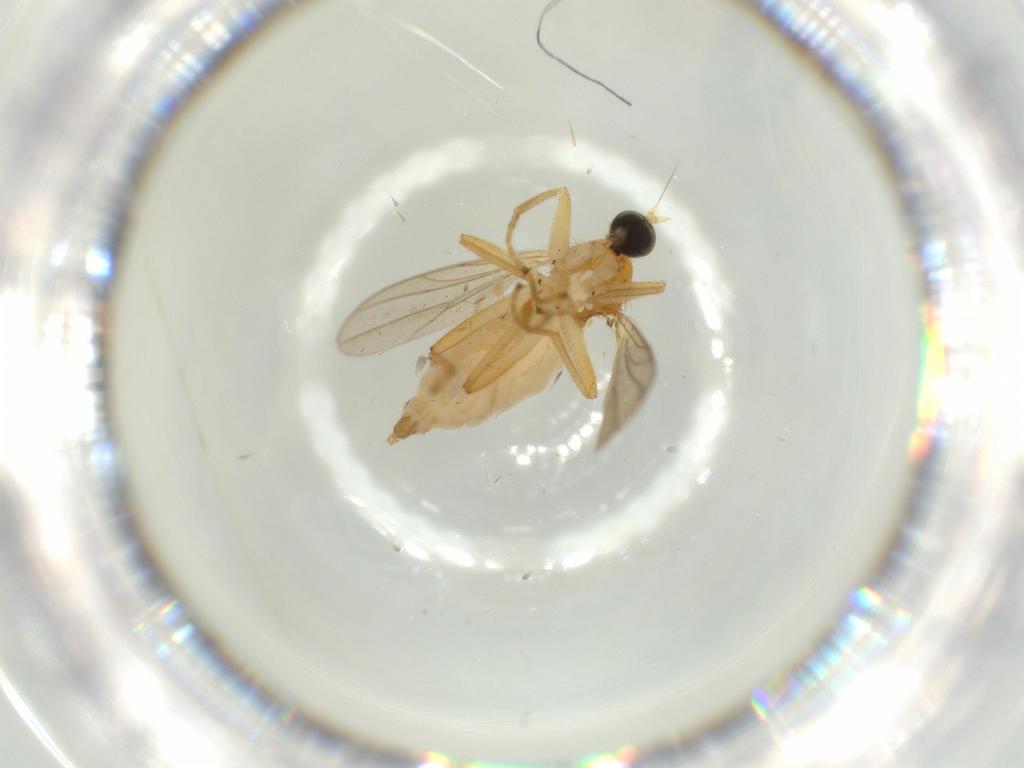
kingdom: Animalia
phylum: Arthropoda
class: Insecta
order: Diptera
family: Hybotidae
